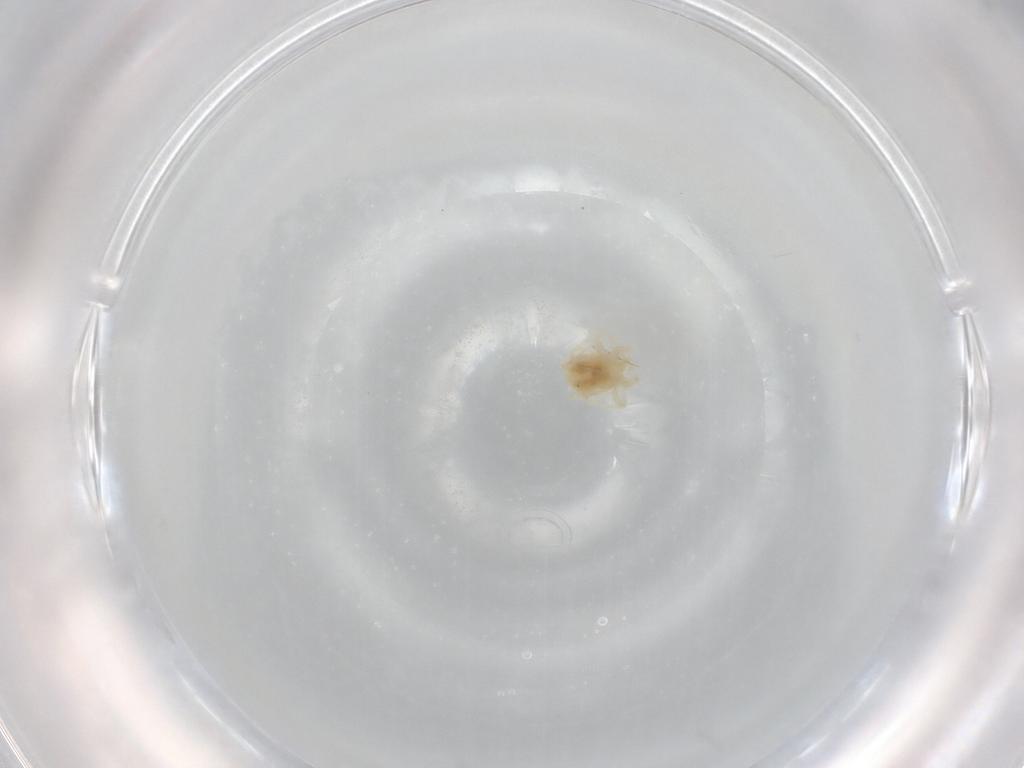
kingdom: Animalia
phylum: Arthropoda
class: Arachnida
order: Trombidiformes
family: Eupodidae
